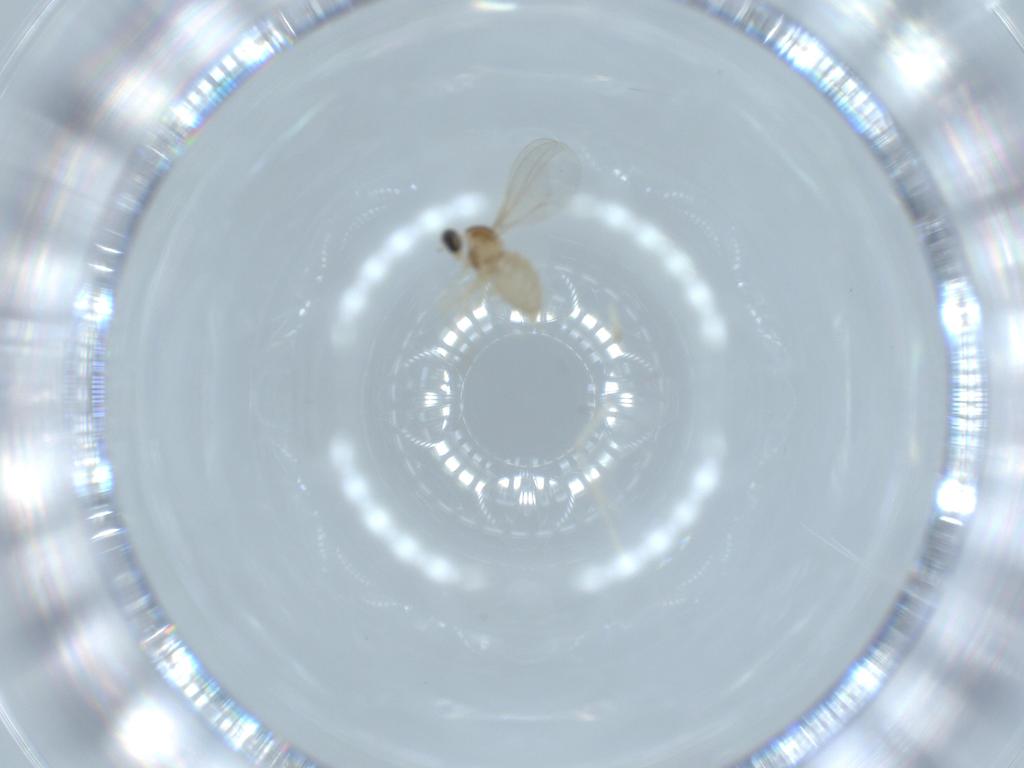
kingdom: Animalia
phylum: Arthropoda
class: Insecta
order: Diptera
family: Cecidomyiidae
